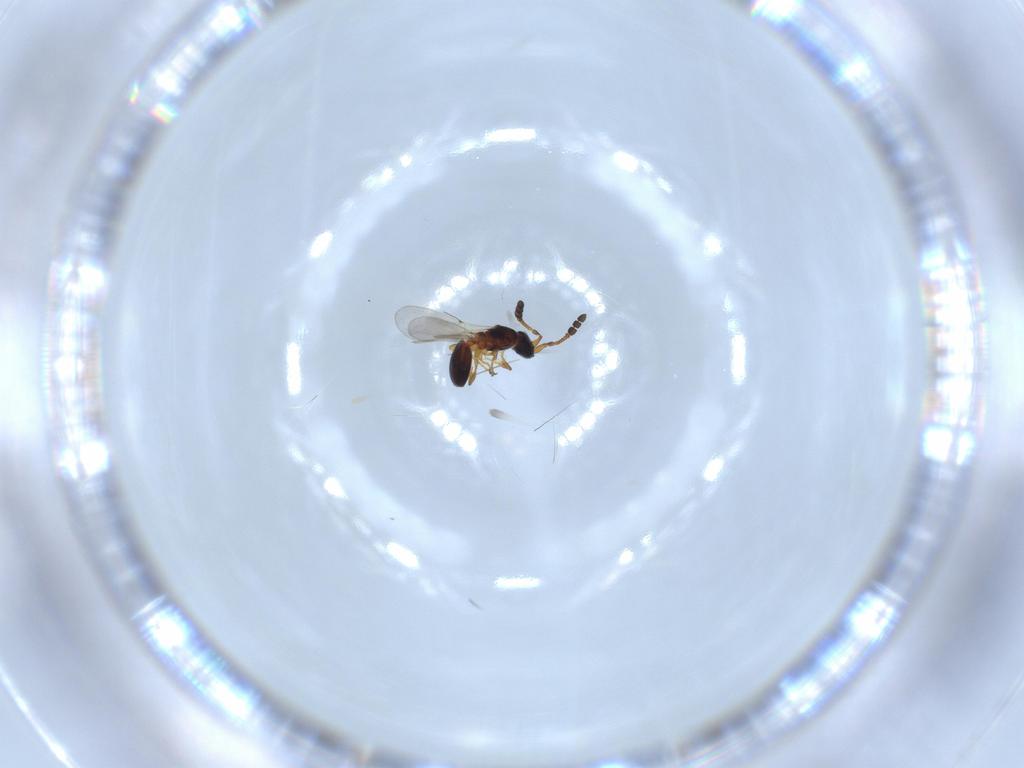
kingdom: Animalia
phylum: Arthropoda
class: Insecta
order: Hymenoptera
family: Diapriidae
